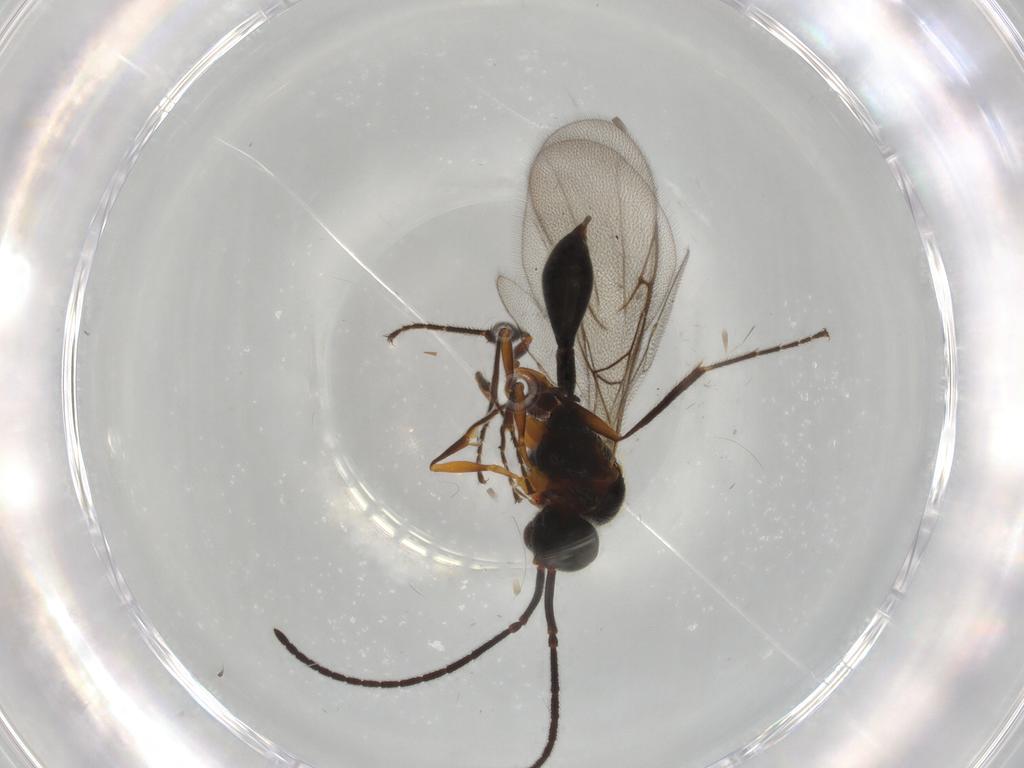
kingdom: Animalia
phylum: Arthropoda
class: Insecta
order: Hymenoptera
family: Diapriidae
